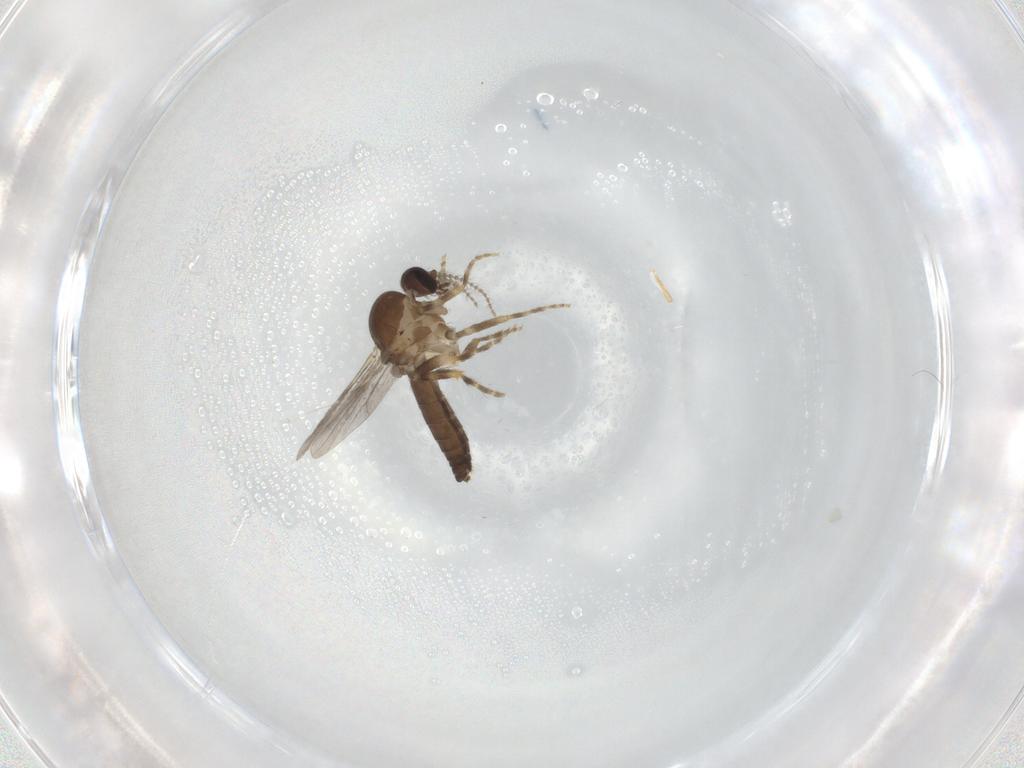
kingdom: Animalia
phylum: Arthropoda
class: Insecta
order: Diptera
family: Ceratopogonidae
